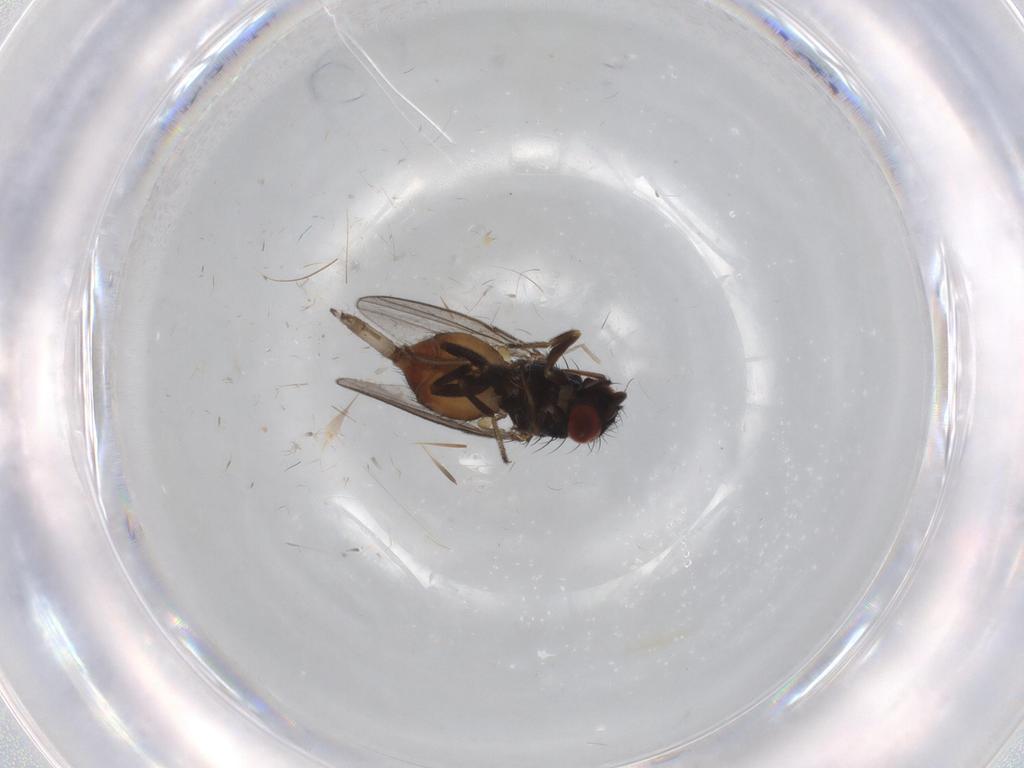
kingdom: Animalia
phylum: Arthropoda
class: Insecta
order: Diptera
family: Milichiidae
